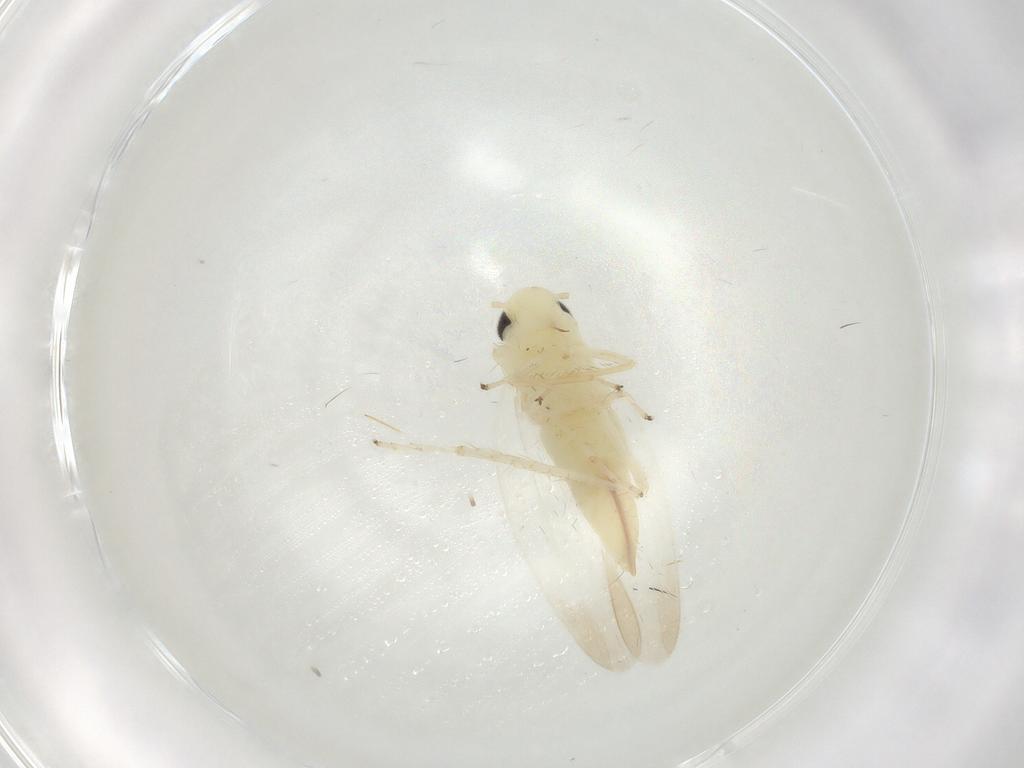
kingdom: Animalia
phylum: Arthropoda
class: Insecta
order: Hemiptera
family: Cicadellidae
